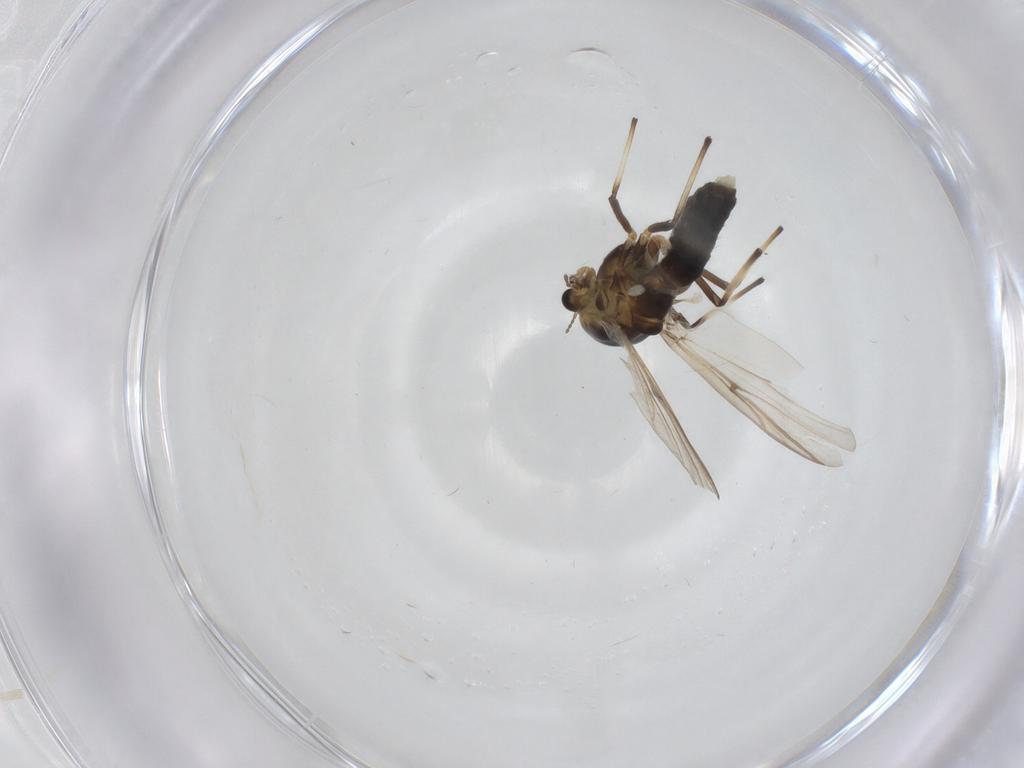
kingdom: Animalia
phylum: Arthropoda
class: Insecta
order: Diptera
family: Chironomidae
